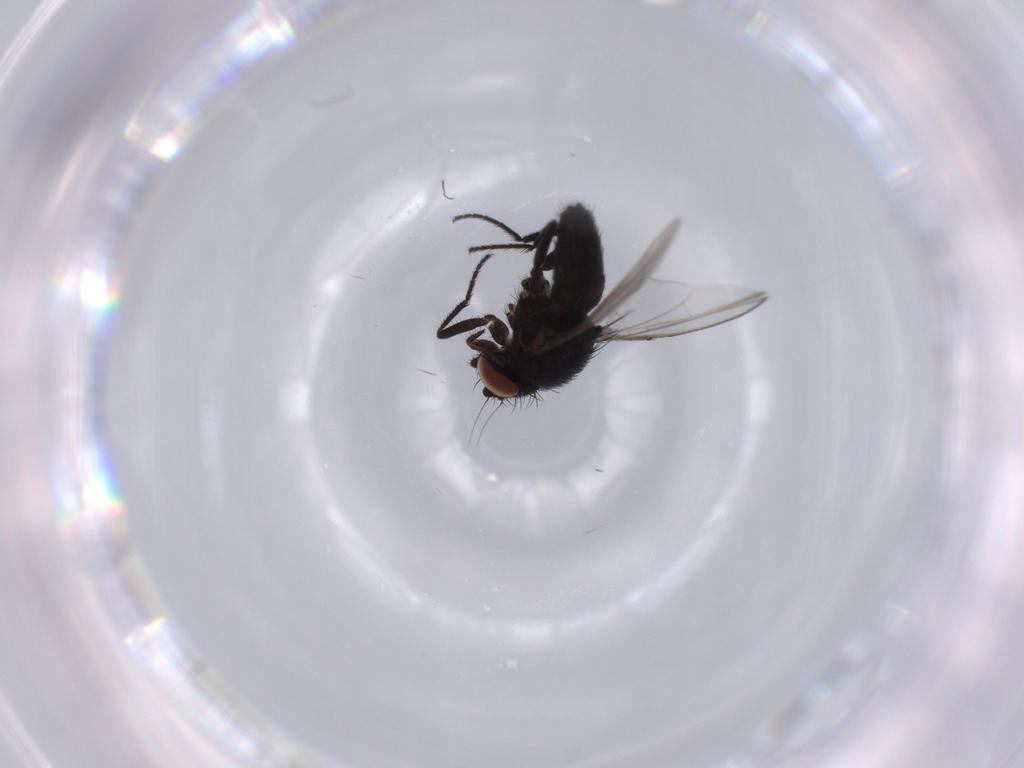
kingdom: Animalia
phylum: Arthropoda
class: Insecta
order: Diptera
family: Milichiidae
